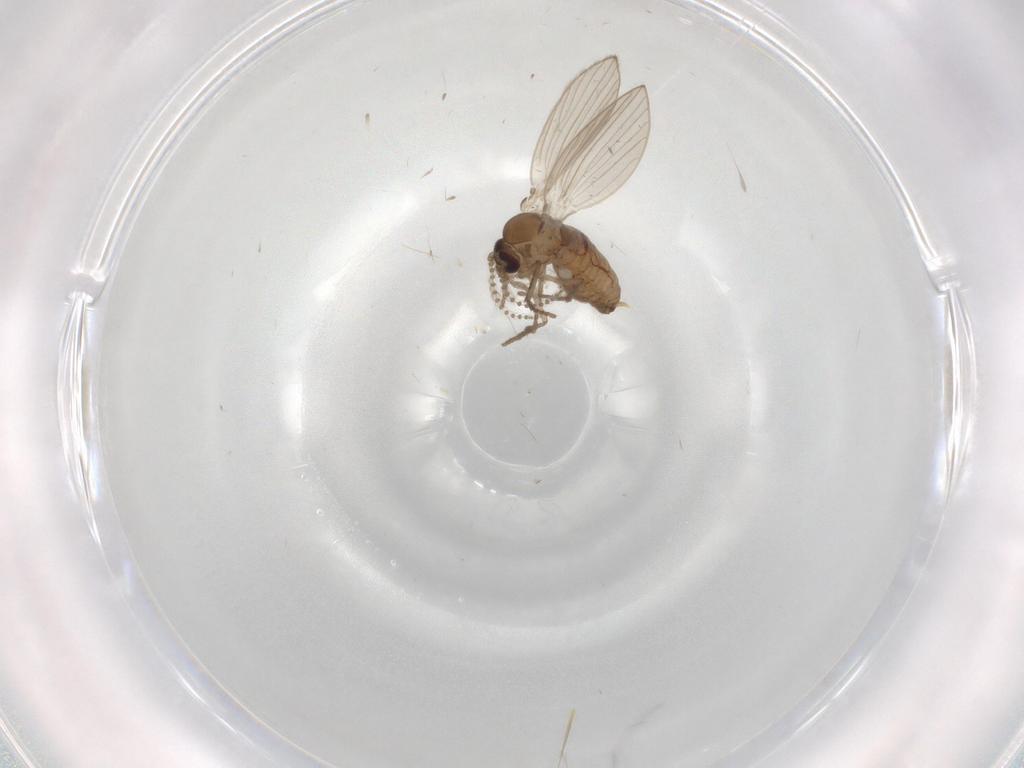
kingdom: Animalia
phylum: Arthropoda
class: Insecta
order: Diptera
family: Psychodidae
